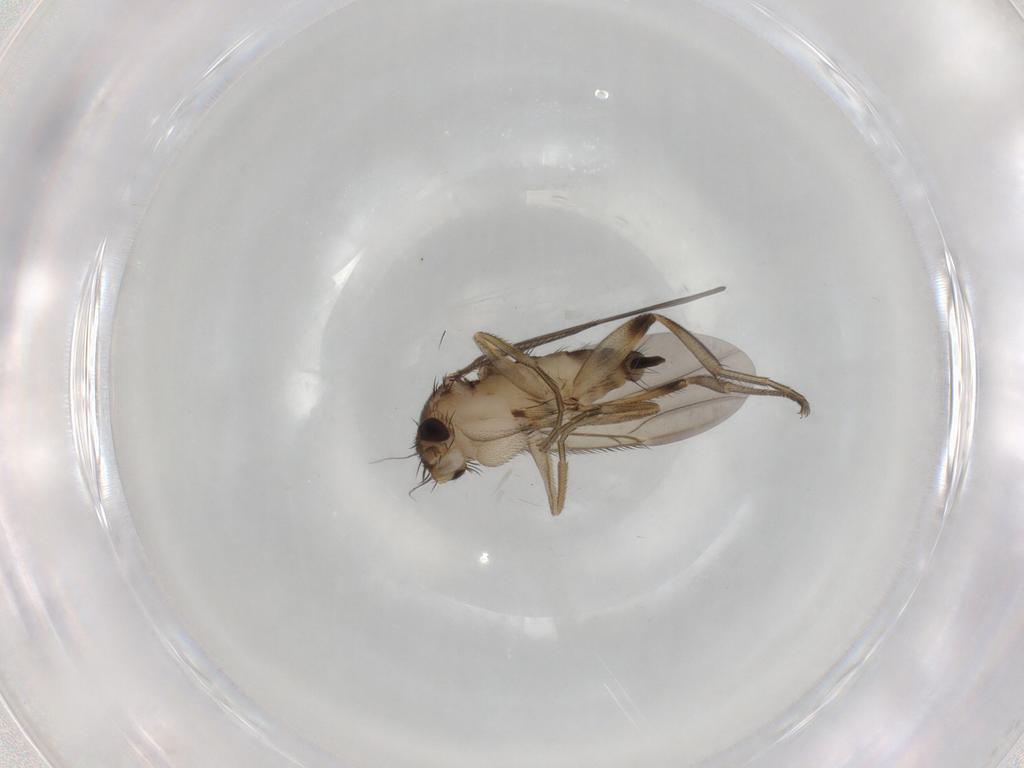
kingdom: Animalia
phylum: Arthropoda
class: Insecta
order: Diptera
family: Phoridae
